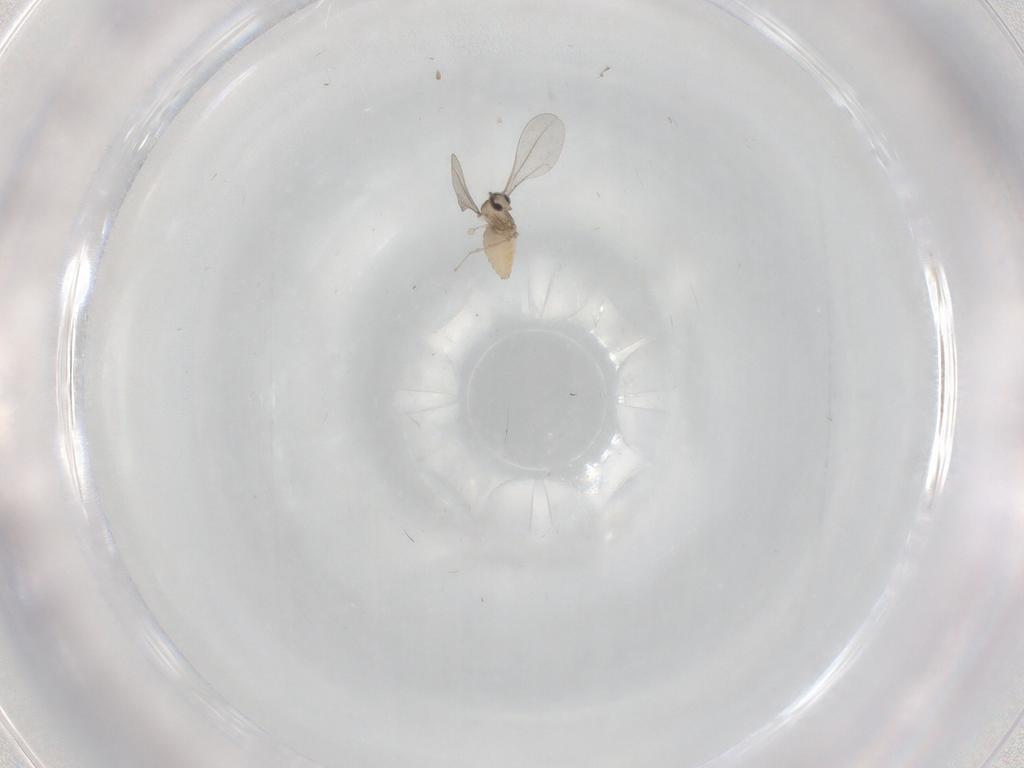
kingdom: Animalia
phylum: Arthropoda
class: Insecta
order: Diptera
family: Cecidomyiidae
